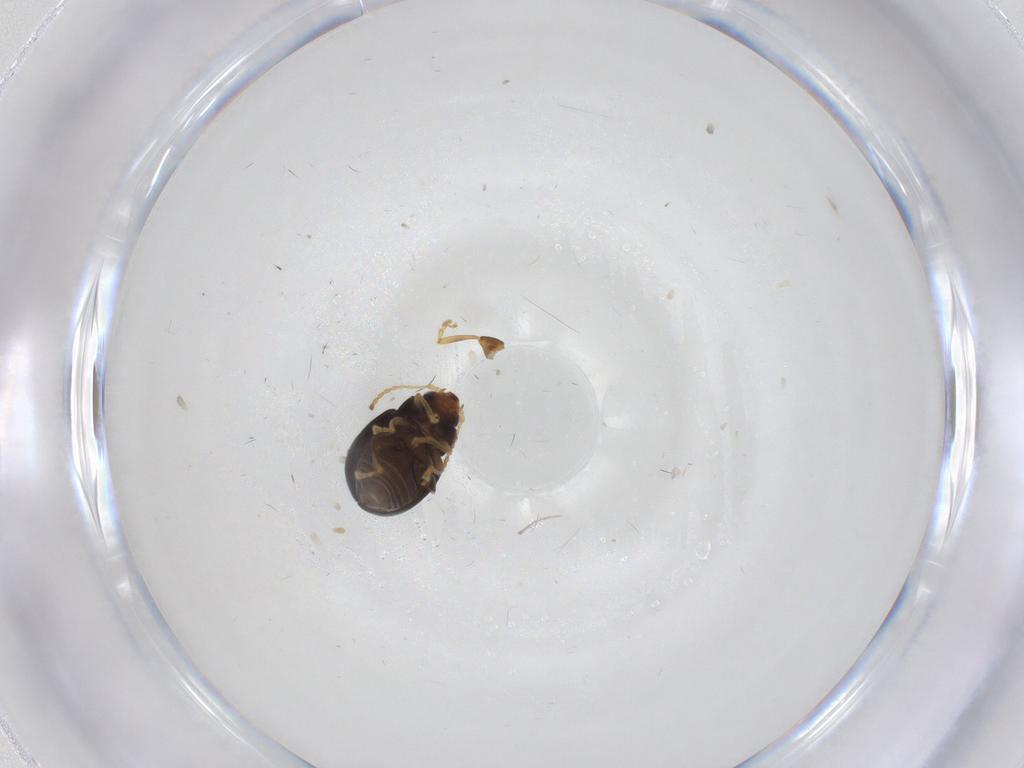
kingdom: Animalia
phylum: Arthropoda
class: Insecta
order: Coleoptera
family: Chrysomelidae
